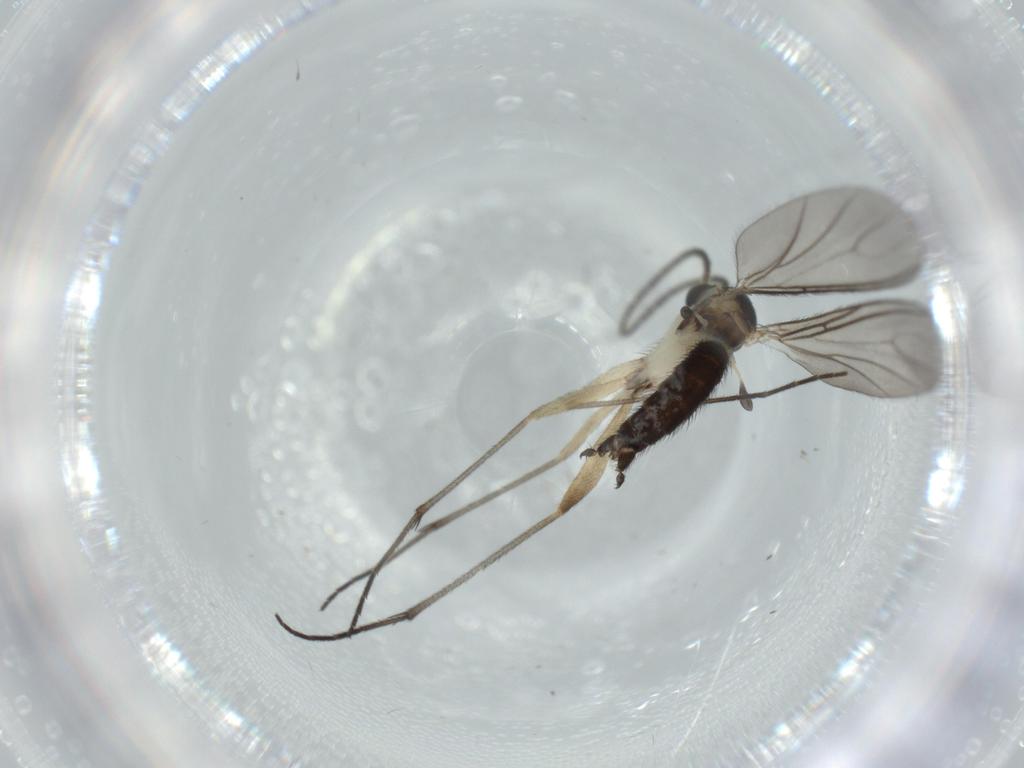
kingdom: Animalia
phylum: Arthropoda
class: Insecta
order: Diptera
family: Sciaridae
